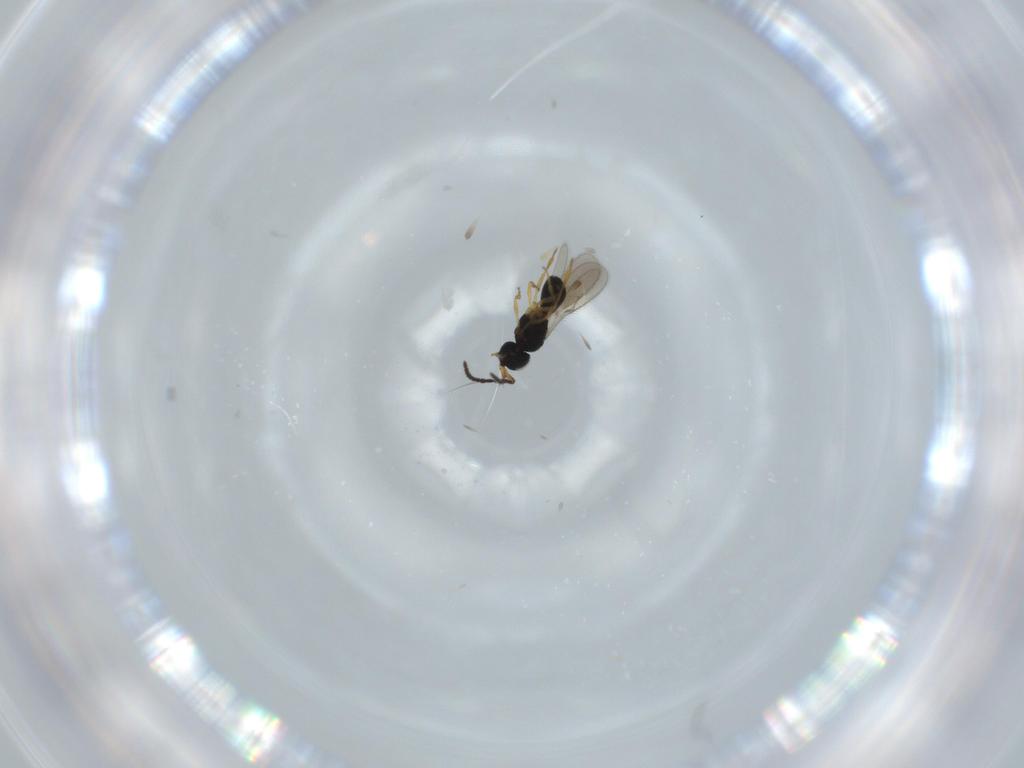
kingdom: Animalia
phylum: Arthropoda
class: Insecta
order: Hymenoptera
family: Scelionidae
